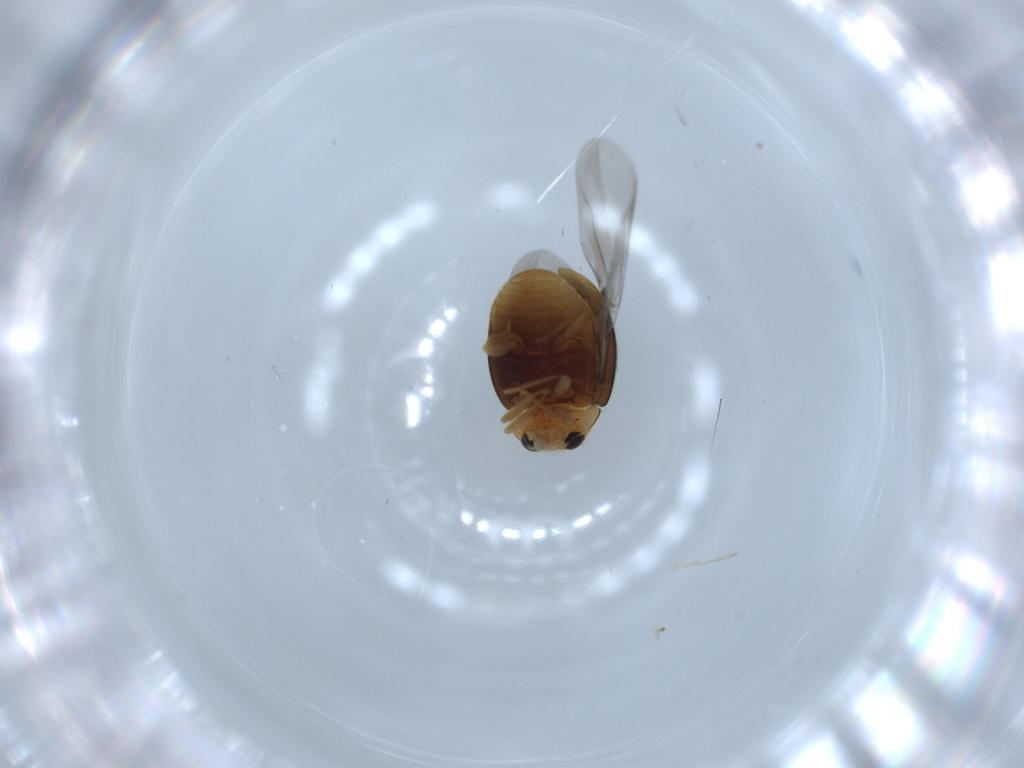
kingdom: Animalia
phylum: Arthropoda
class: Insecta
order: Coleoptera
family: Coccinellidae
